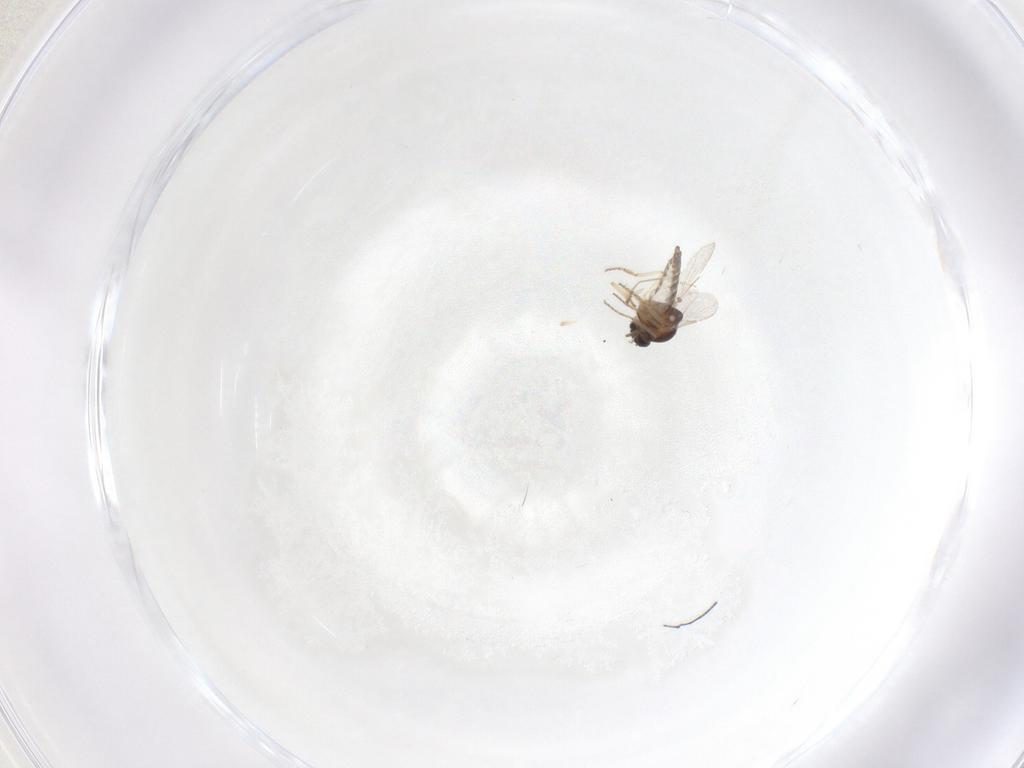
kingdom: Animalia
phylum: Arthropoda
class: Insecta
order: Diptera
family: Ceratopogonidae
